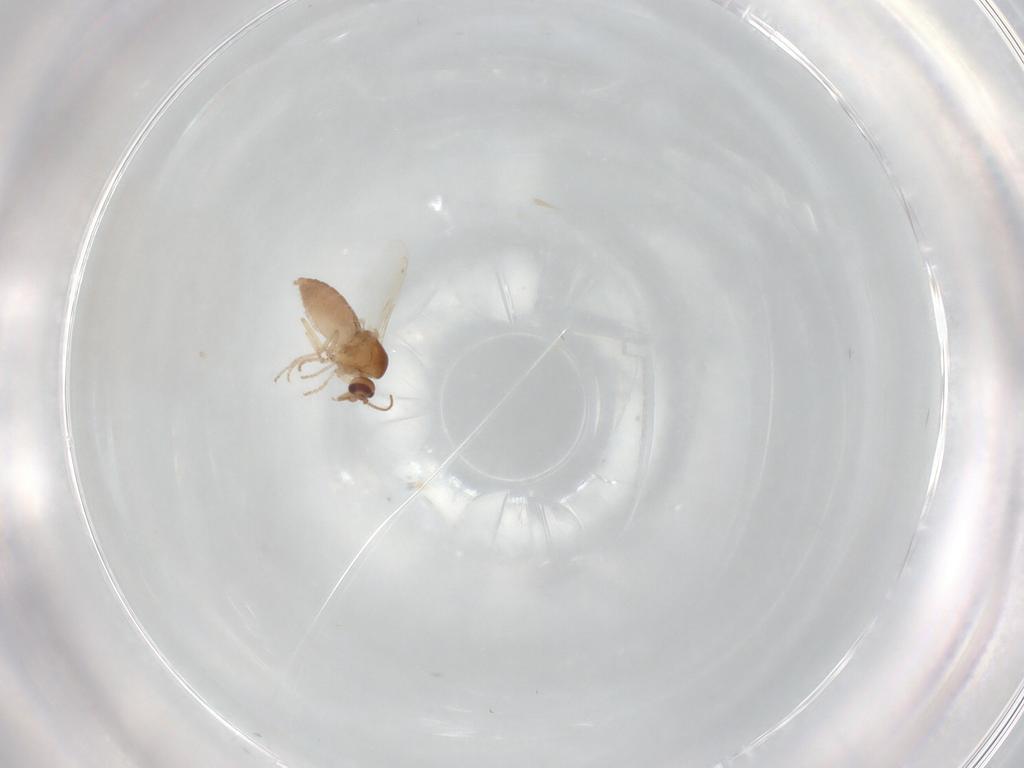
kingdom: Animalia
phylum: Arthropoda
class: Insecta
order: Diptera
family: Ceratopogonidae
